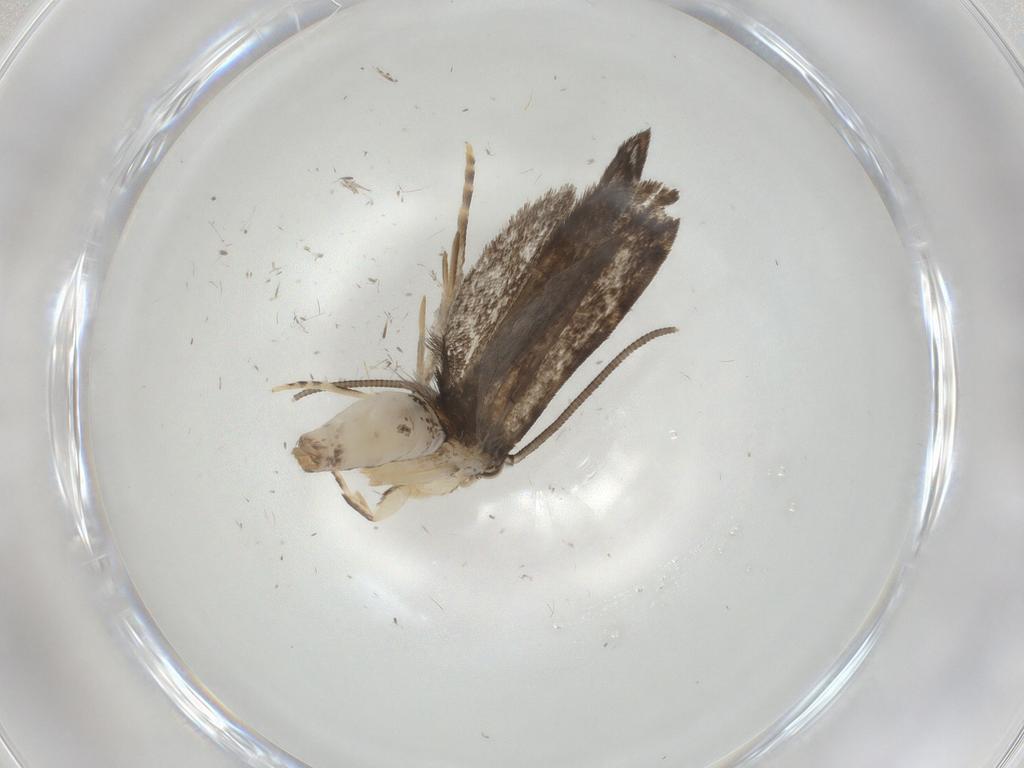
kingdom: Animalia
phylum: Arthropoda
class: Insecta
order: Lepidoptera
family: Dryadaulidae
